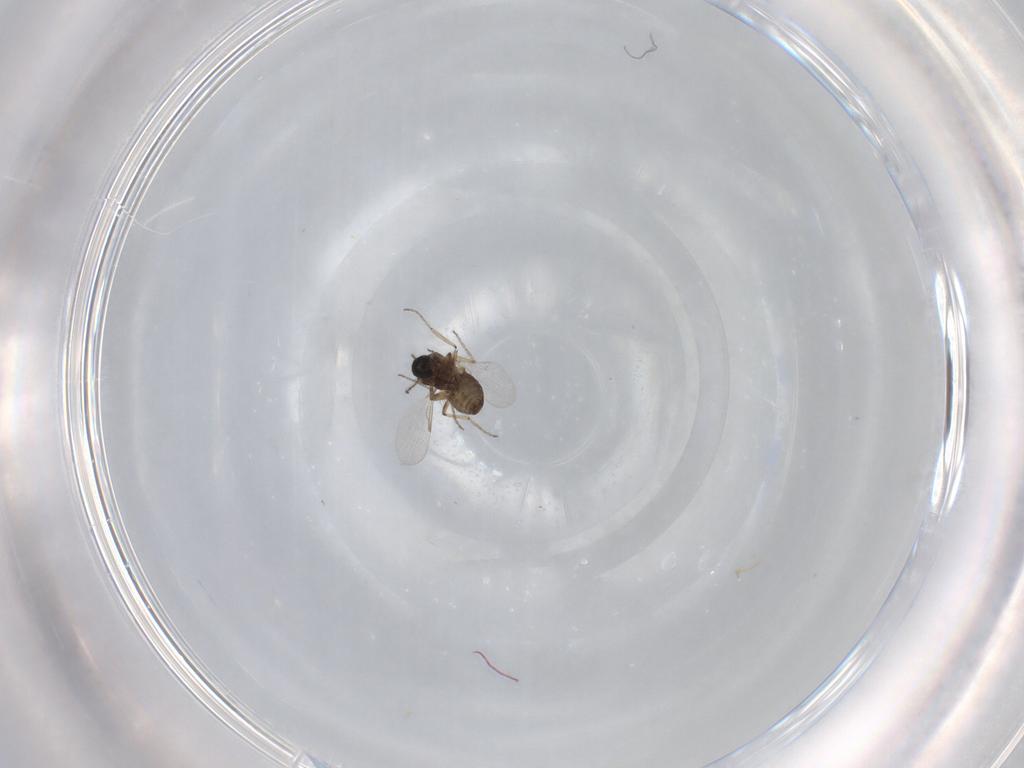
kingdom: Animalia
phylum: Arthropoda
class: Insecta
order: Diptera
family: Ceratopogonidae
